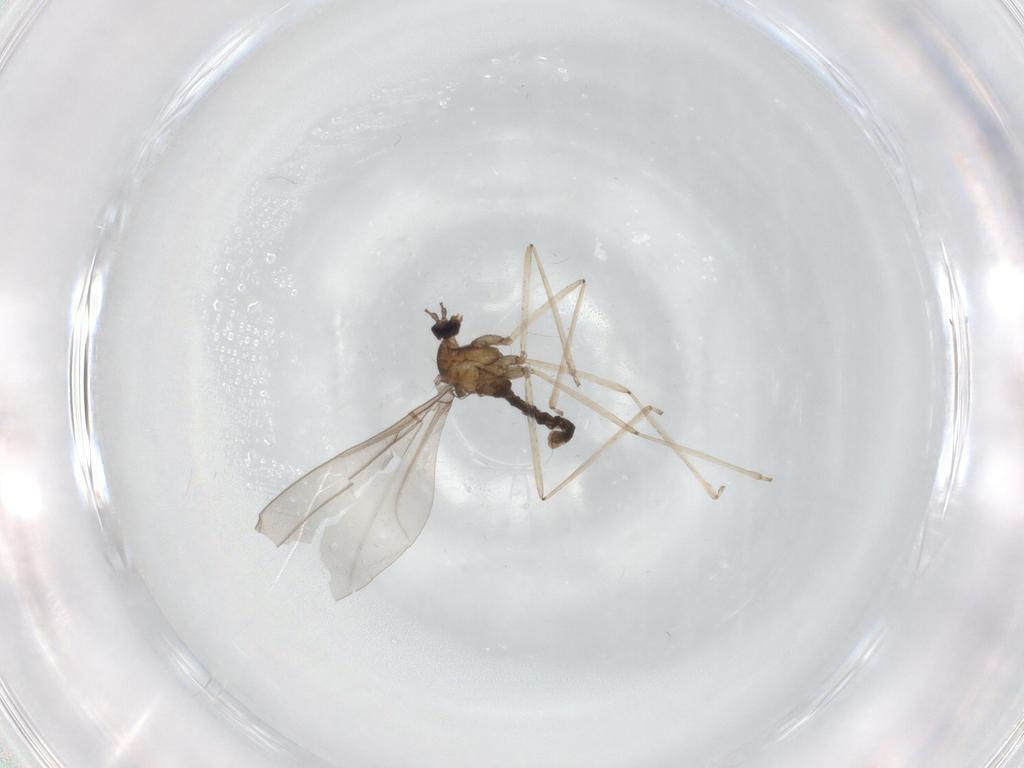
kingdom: Animalia
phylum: Arthropoda
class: Insecta
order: Diptera
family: Cecidomyiidae
